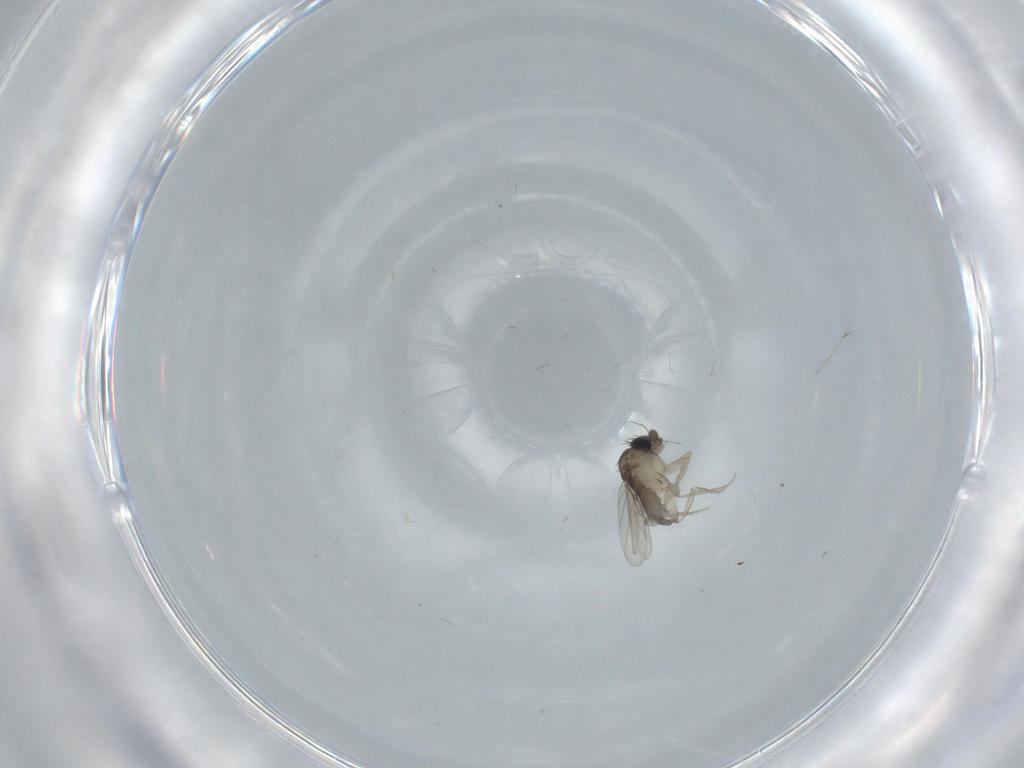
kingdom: Animalia
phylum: Arthropoda
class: Insecta
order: Diptera
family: Phoridae
